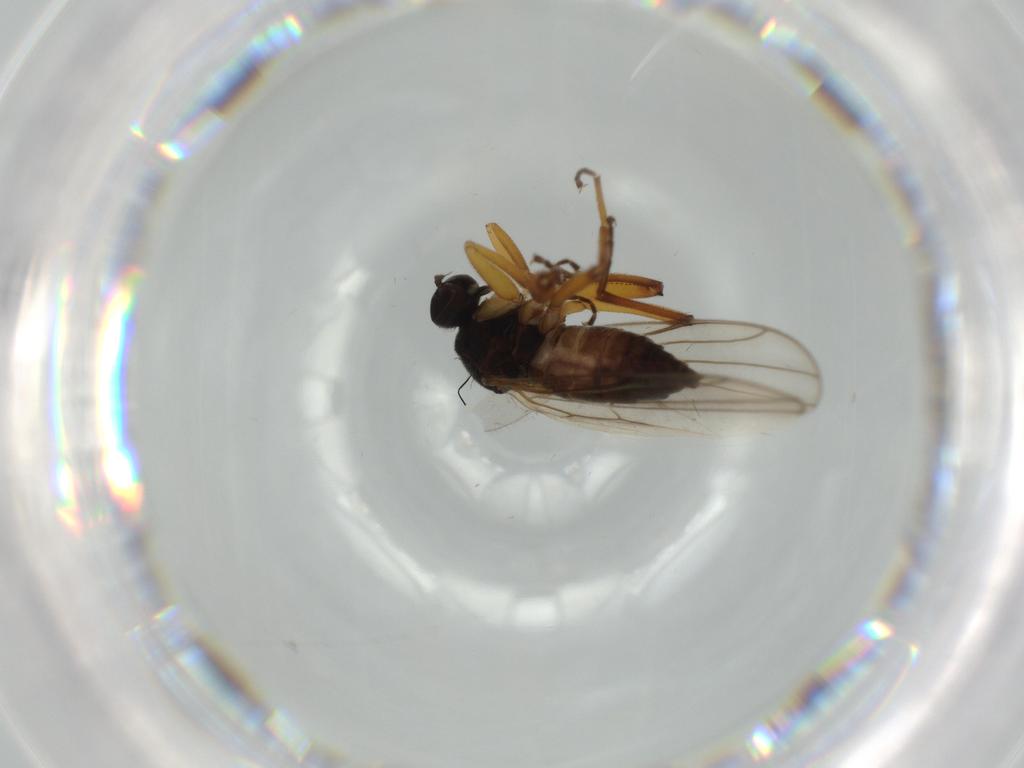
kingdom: Animalia
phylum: Arthropoda
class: Insecta
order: Diptera
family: Hybotidae
